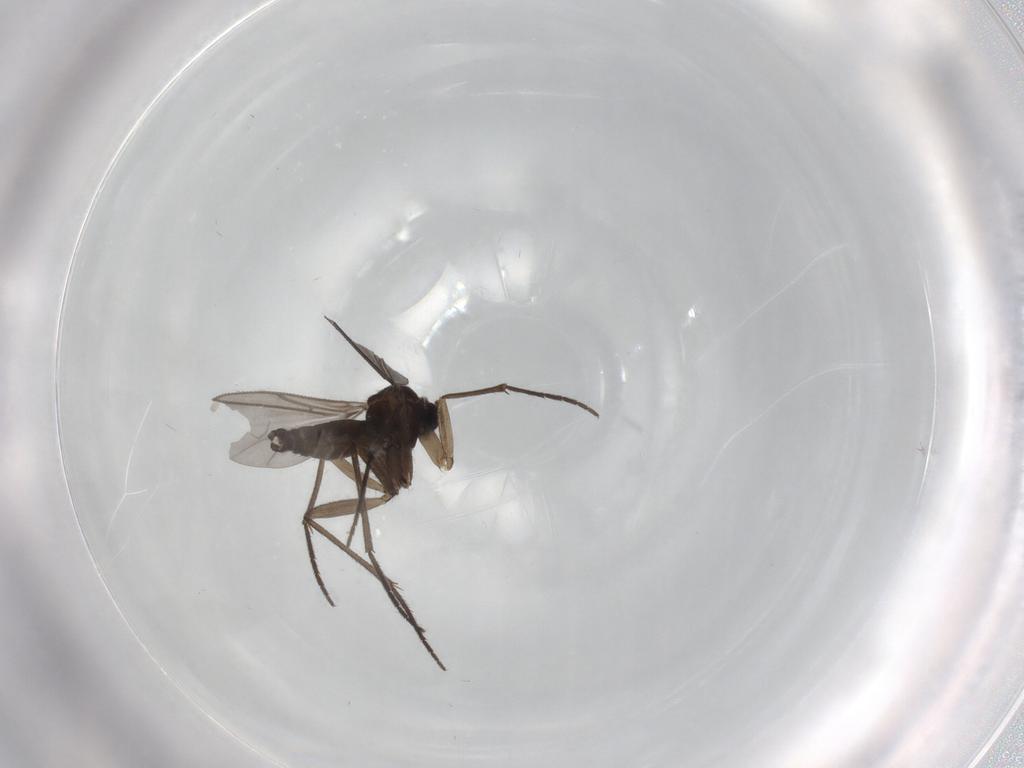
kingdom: Animalia
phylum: Arthropoda
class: Insecta
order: Diptera
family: Sciaridae
